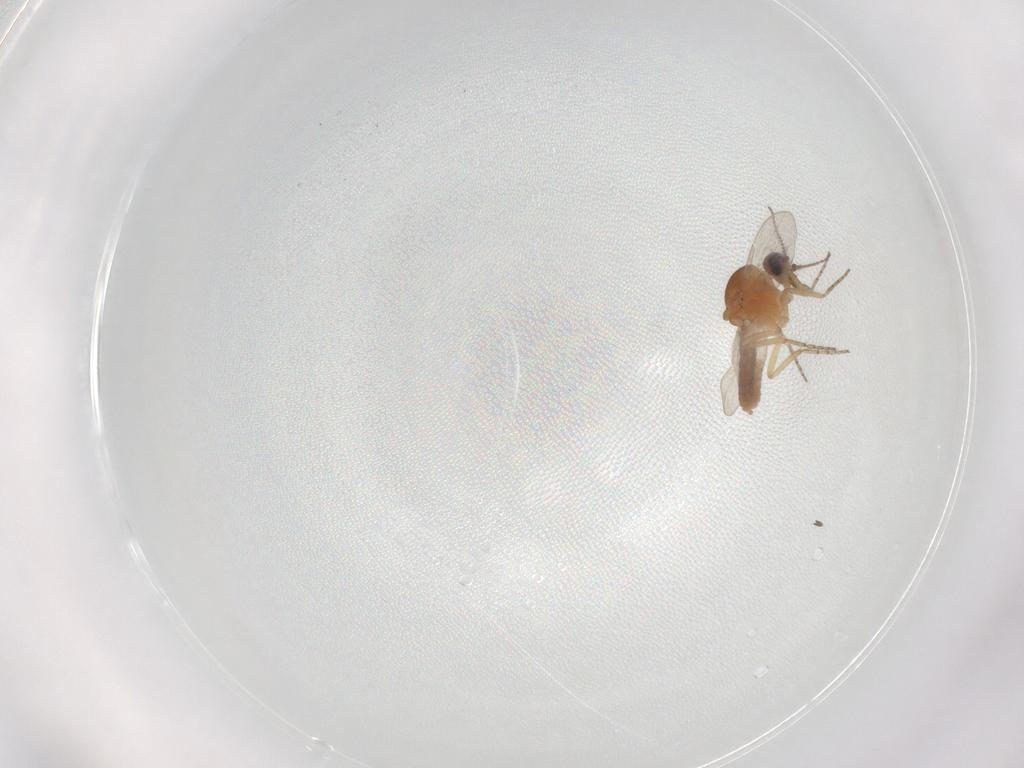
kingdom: Animalia
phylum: Arthropoda
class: Insecta
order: Diptera
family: Ceratopogonidae
